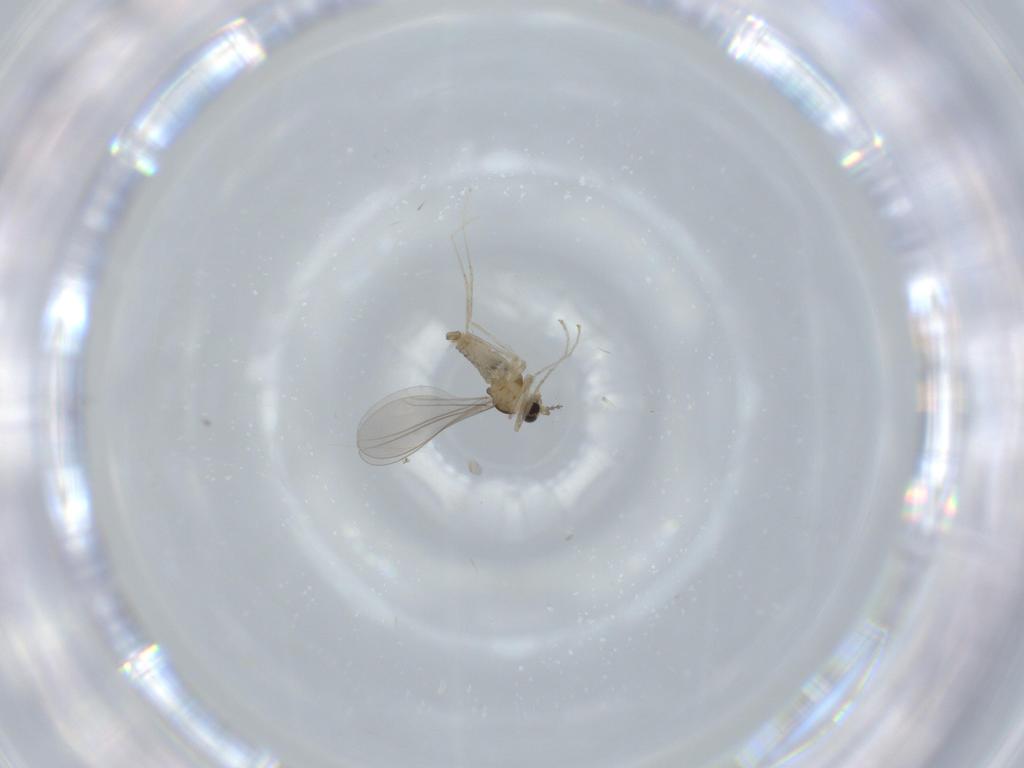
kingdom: Animalia
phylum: Arthropoda
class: Insecta
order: Diptera
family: Cecidomyiidae
